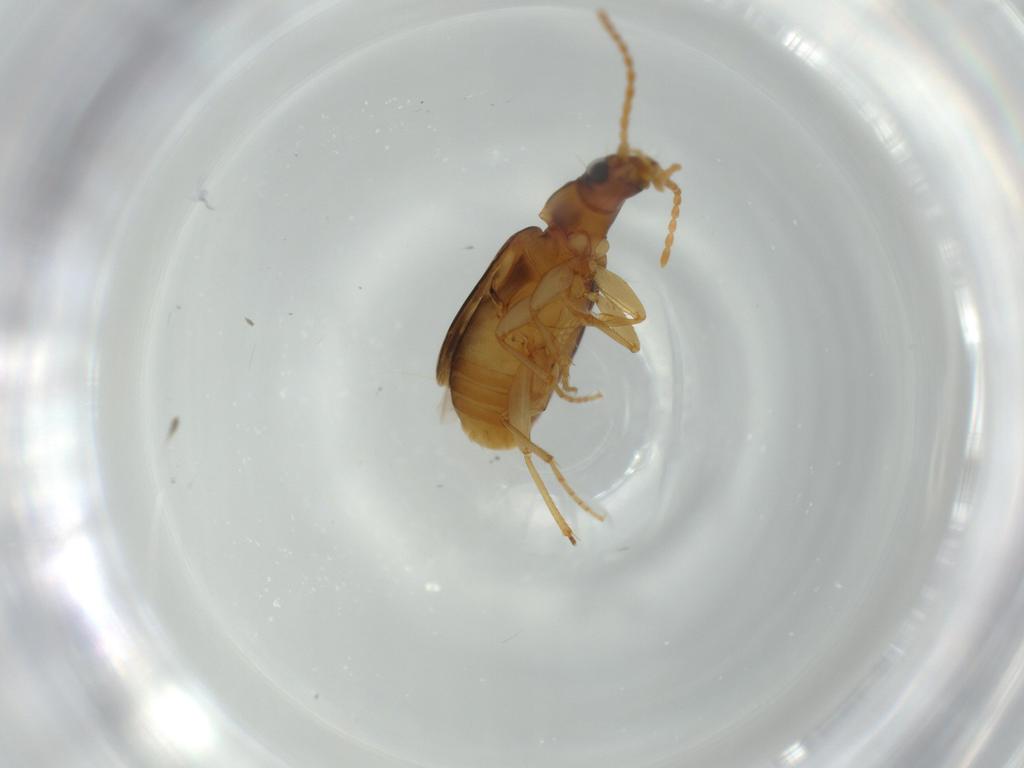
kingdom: Animalia
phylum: Arthropoda
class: Insecta
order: Coleoptera
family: Carabidae
